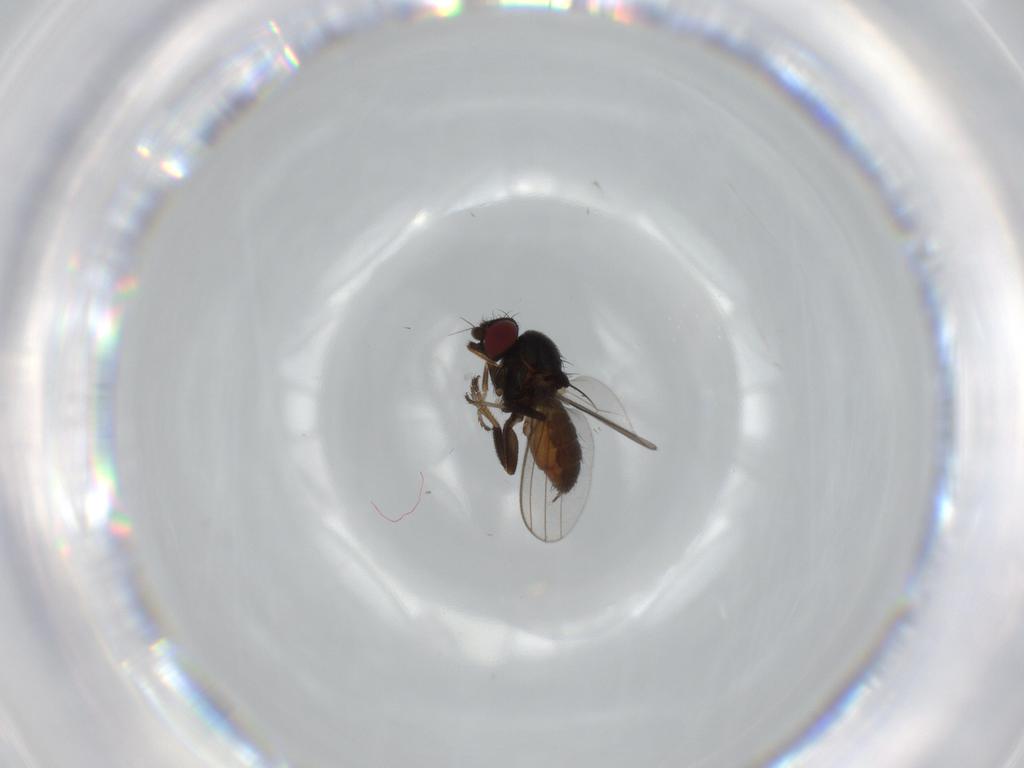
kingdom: Animalia
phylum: Arthropoda
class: Insecta
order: Diptera
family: Milichiidae
